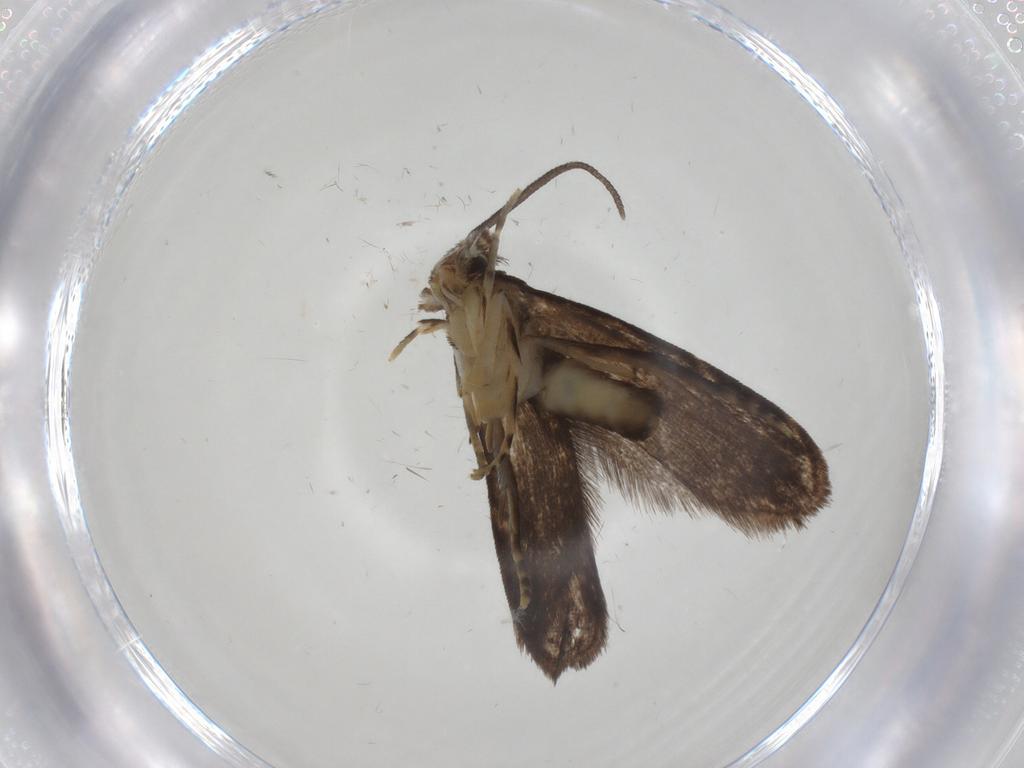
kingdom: Animalia
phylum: Arthropoda
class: Insecta
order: Lepidoptera
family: Dryadaulidae
